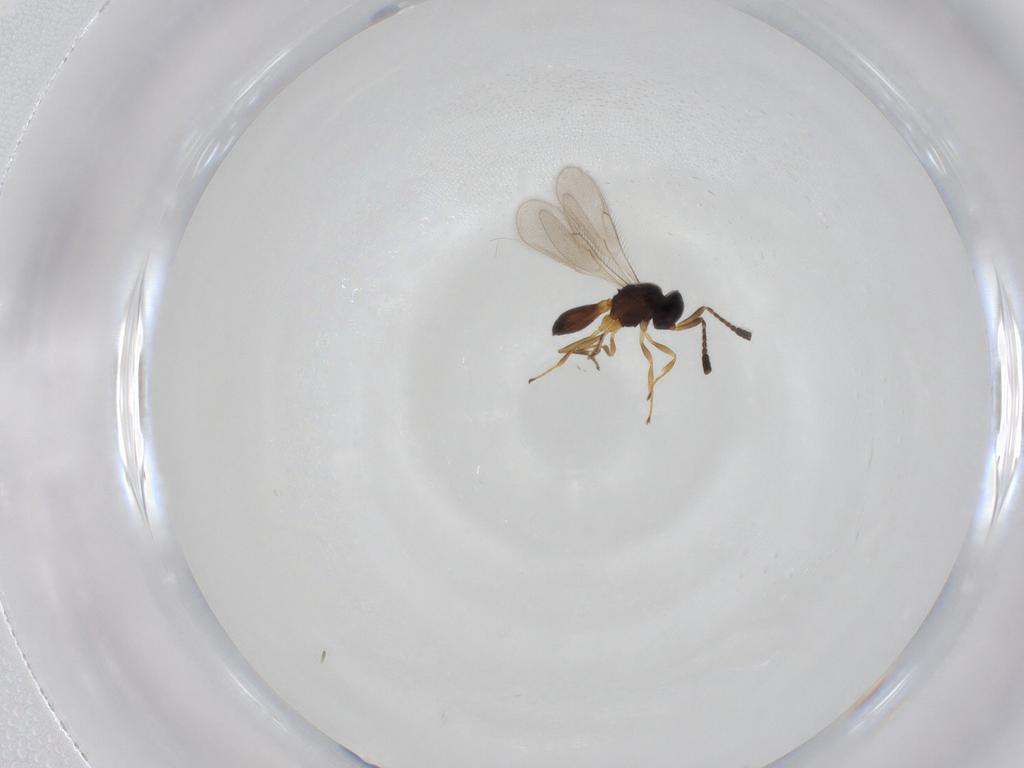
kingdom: Animalia
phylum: Arthropoda
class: Insecta
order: Hymenoptera
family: Scelionidae
